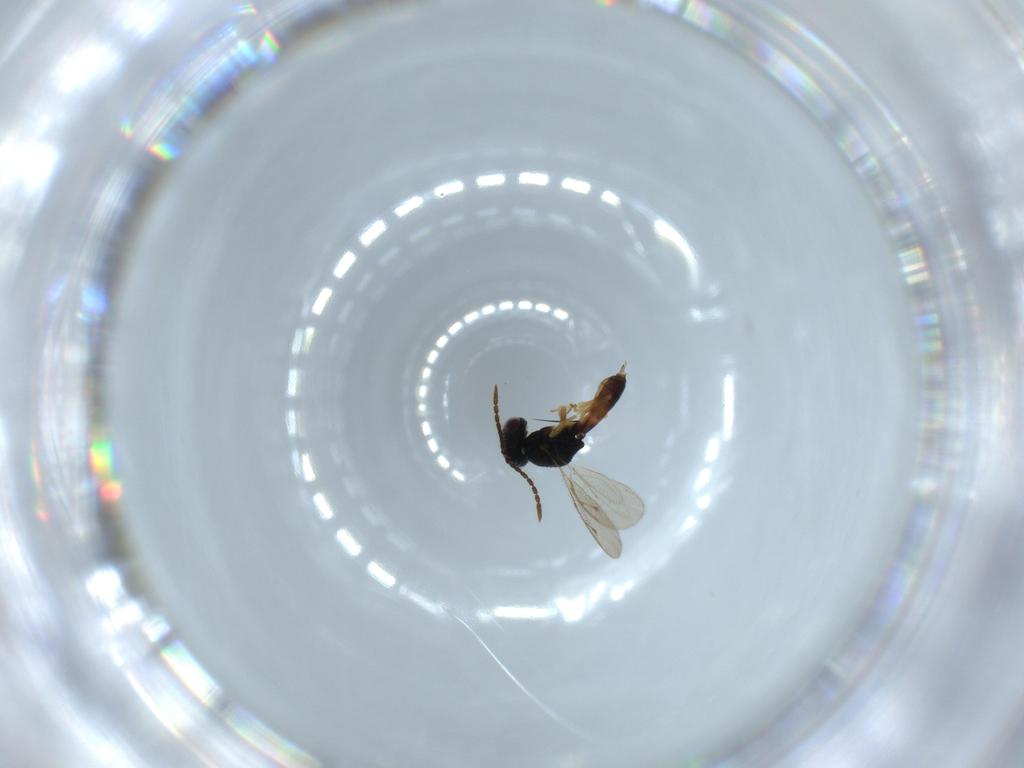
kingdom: Animalia
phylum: Arthropoda
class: Insecta
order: Hymenoptera
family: Pteromalidae
